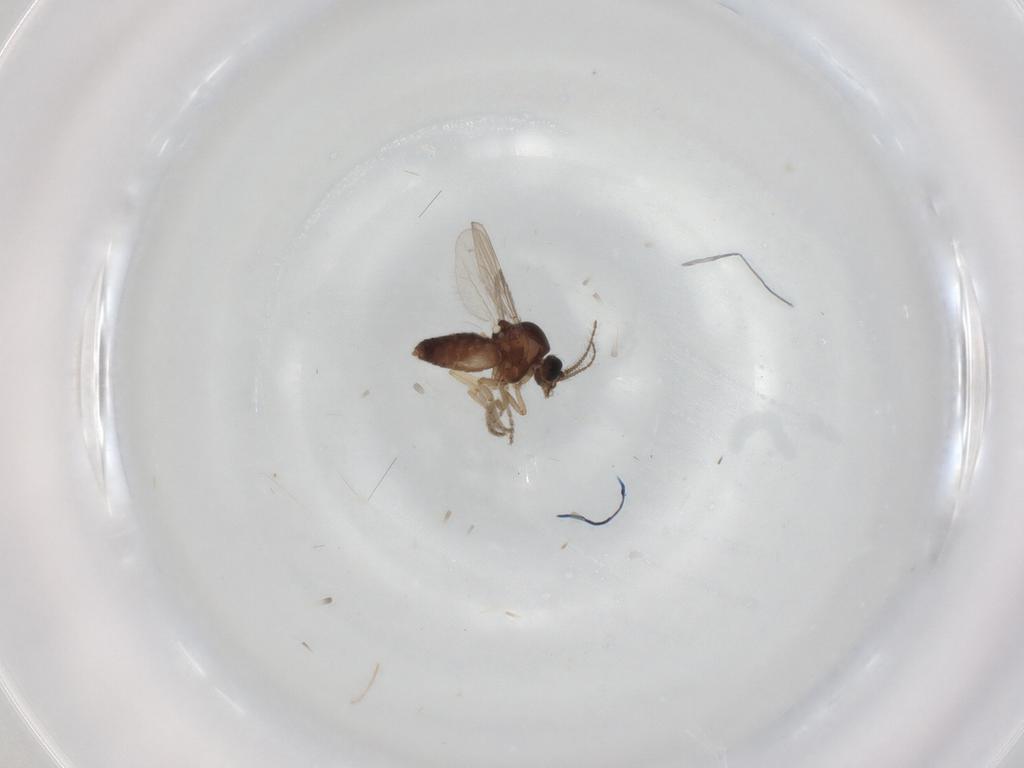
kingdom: Animalia
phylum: Arthropoda
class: Insecta
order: Diptera
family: Ceratopogonidae
